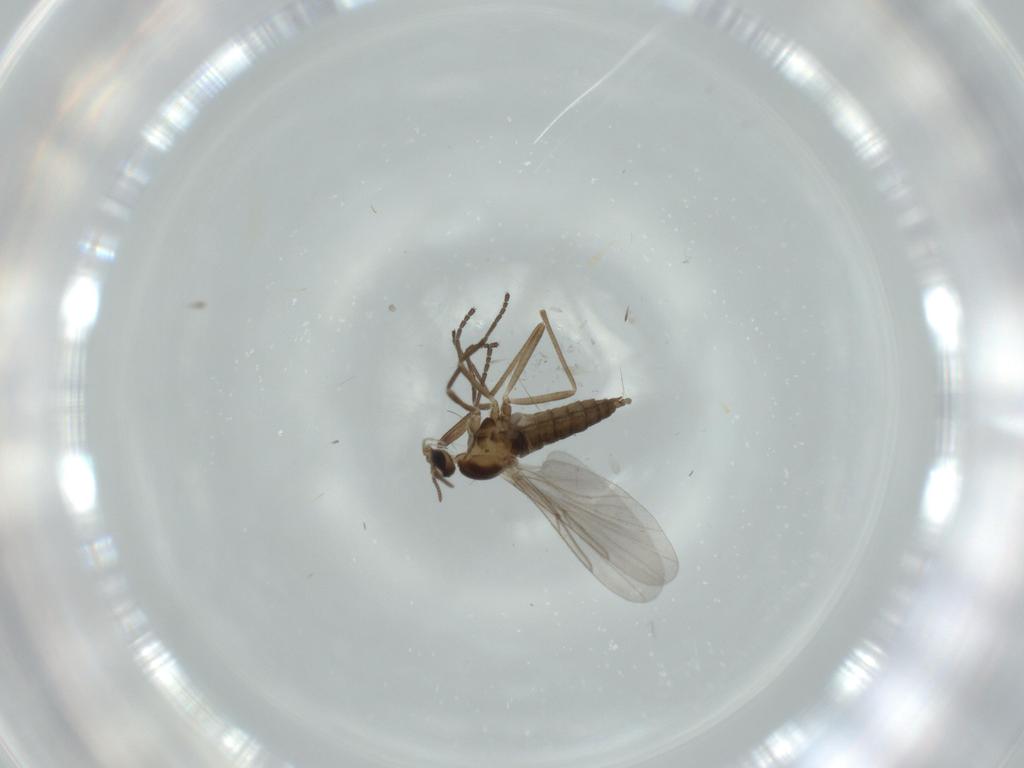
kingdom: Animalia
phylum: Arthropoda
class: Insecta
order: Diptera
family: Cecidomyiidae
